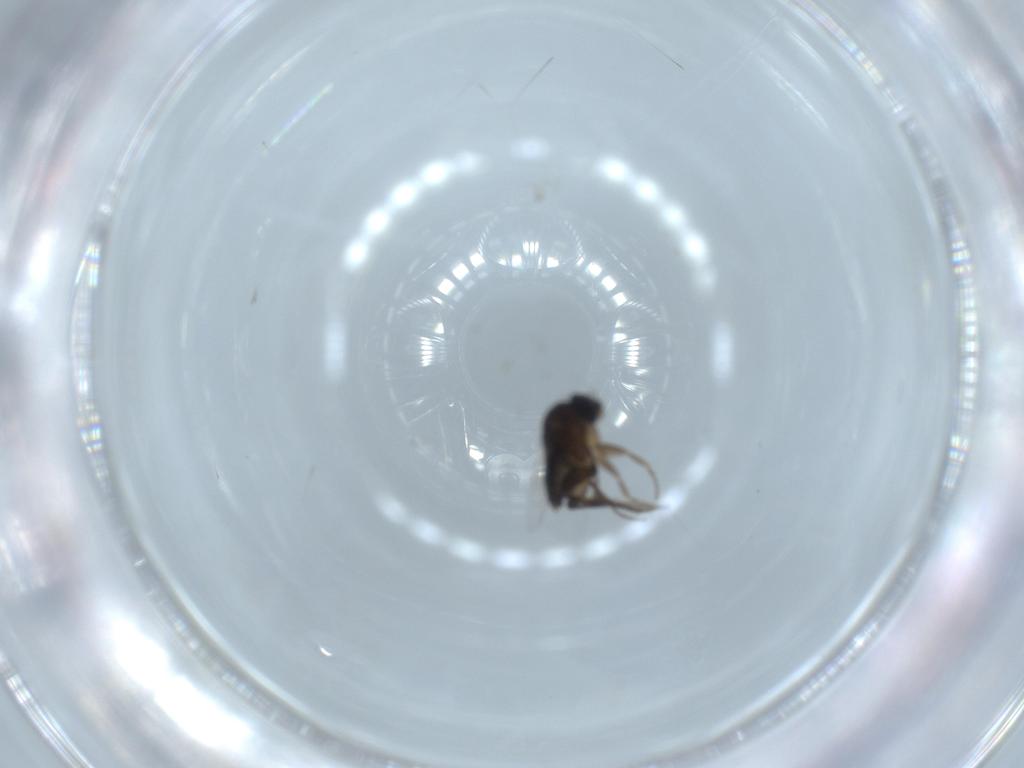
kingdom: Animalia
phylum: Arthropoda
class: Insecta
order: Diptera
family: Phoridae
